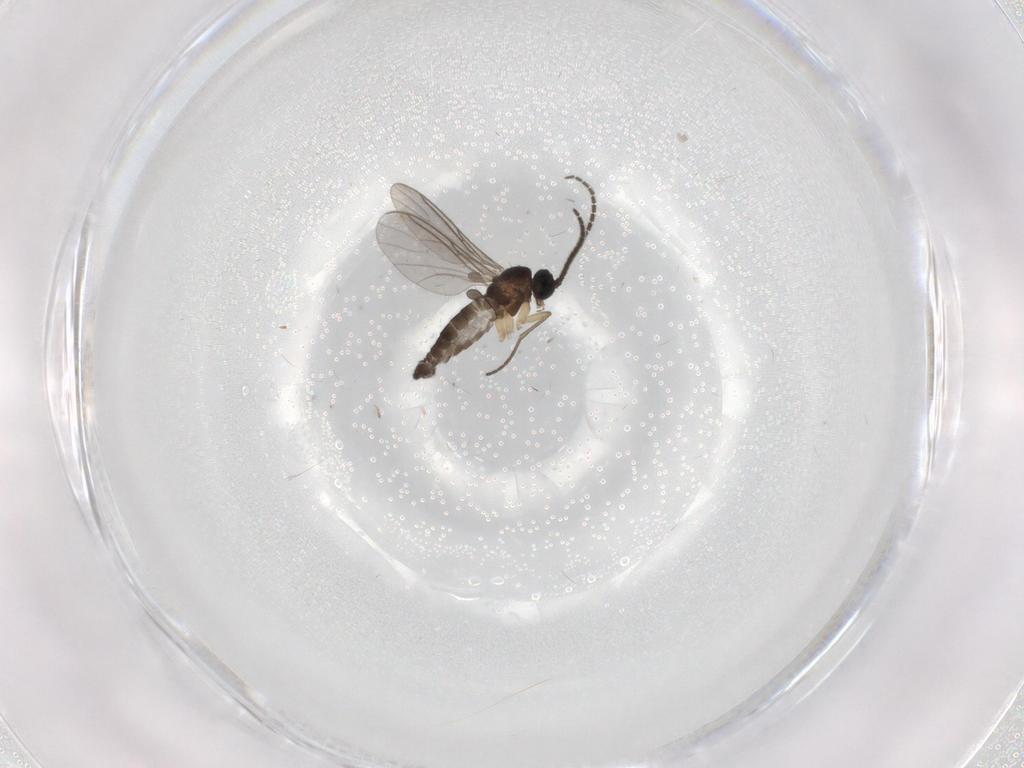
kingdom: Animalia
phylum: Arthropoda
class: Insecta
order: Diptera
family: Sciaridae
